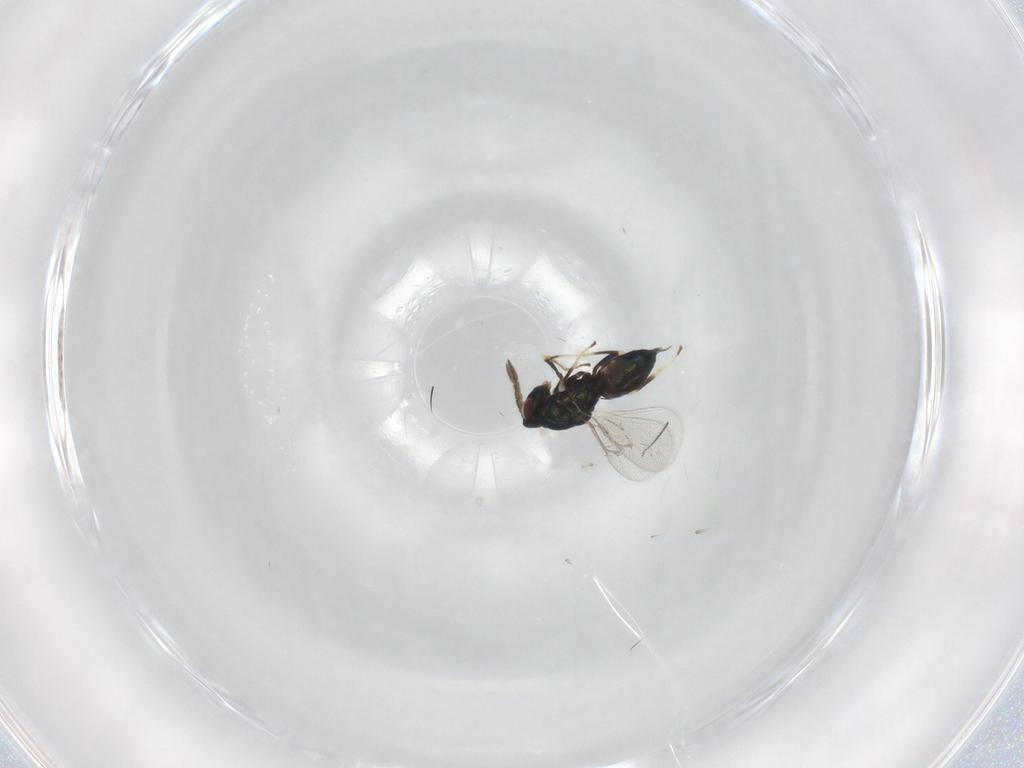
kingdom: Animalia
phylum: Arthropoda
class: Insecta
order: Hymenoptera
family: Eulophidae
